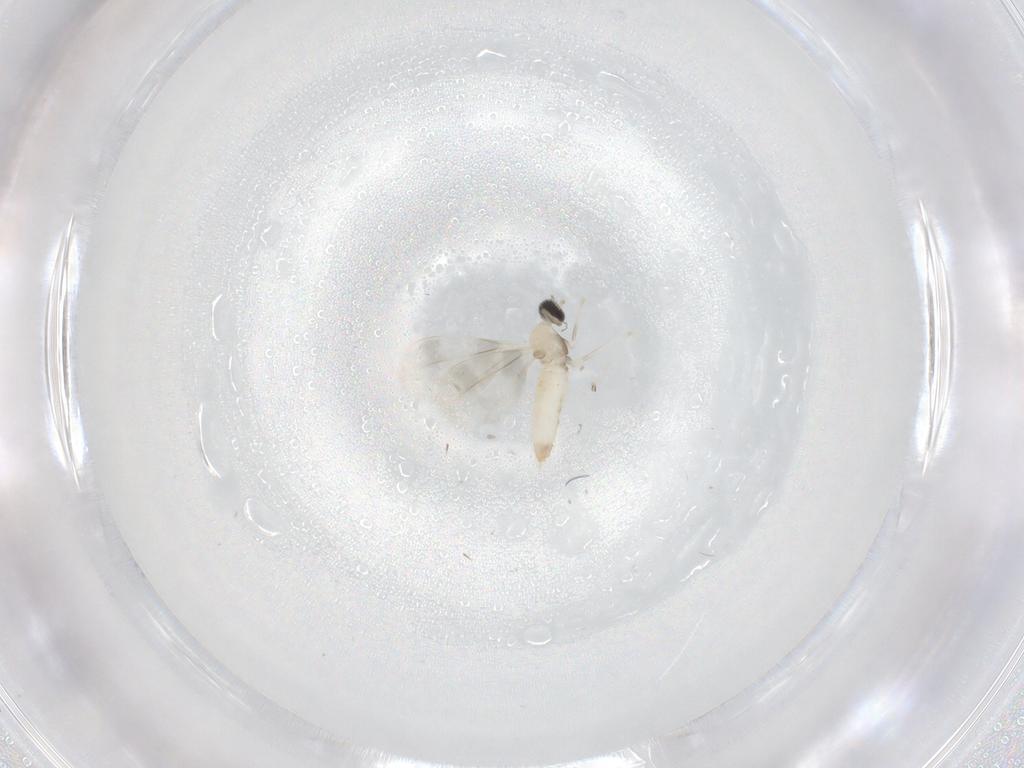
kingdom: Animalia
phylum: Arthropoda
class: Insecta
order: Diptera
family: Cecidomyiidae
